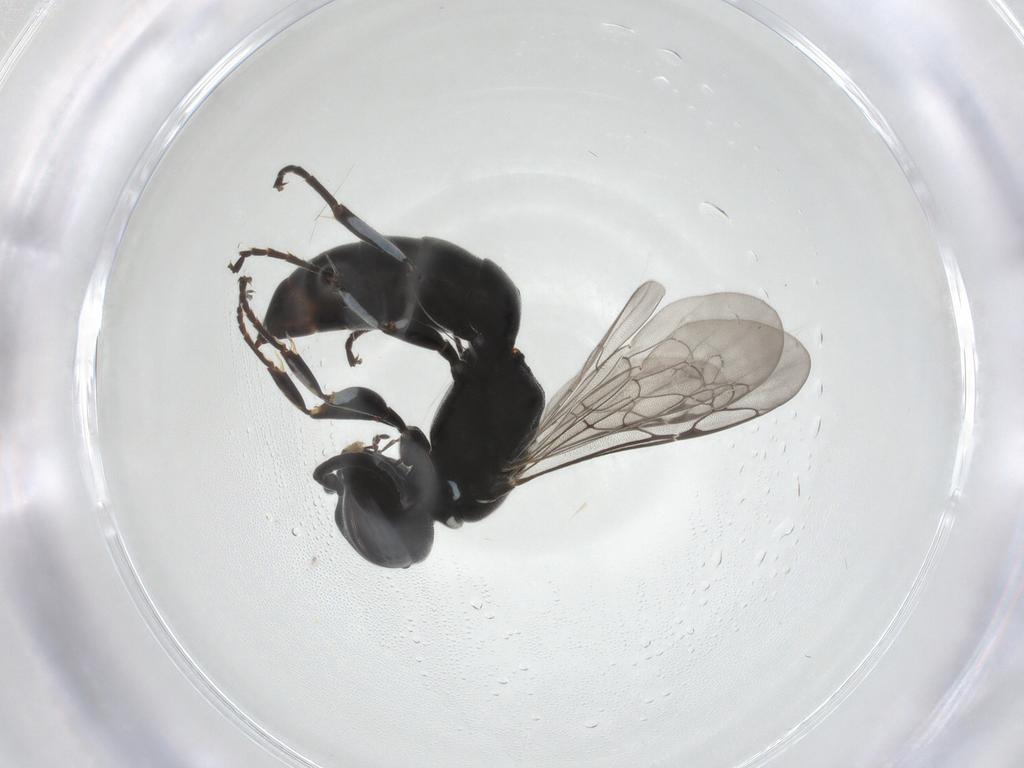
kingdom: Animalia
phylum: Arthropoda
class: Insecta
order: Hymenoptera
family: Crabronidae
